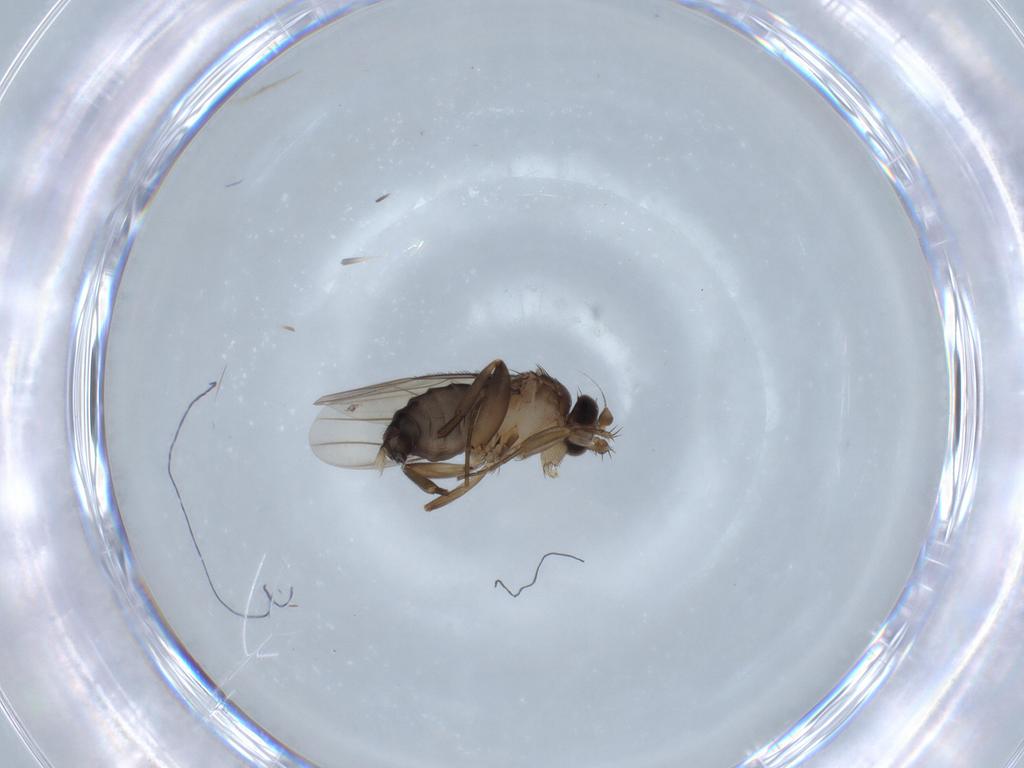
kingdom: Animalia
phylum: Arthropoda
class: Insecta
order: Diptera
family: Phoridae
